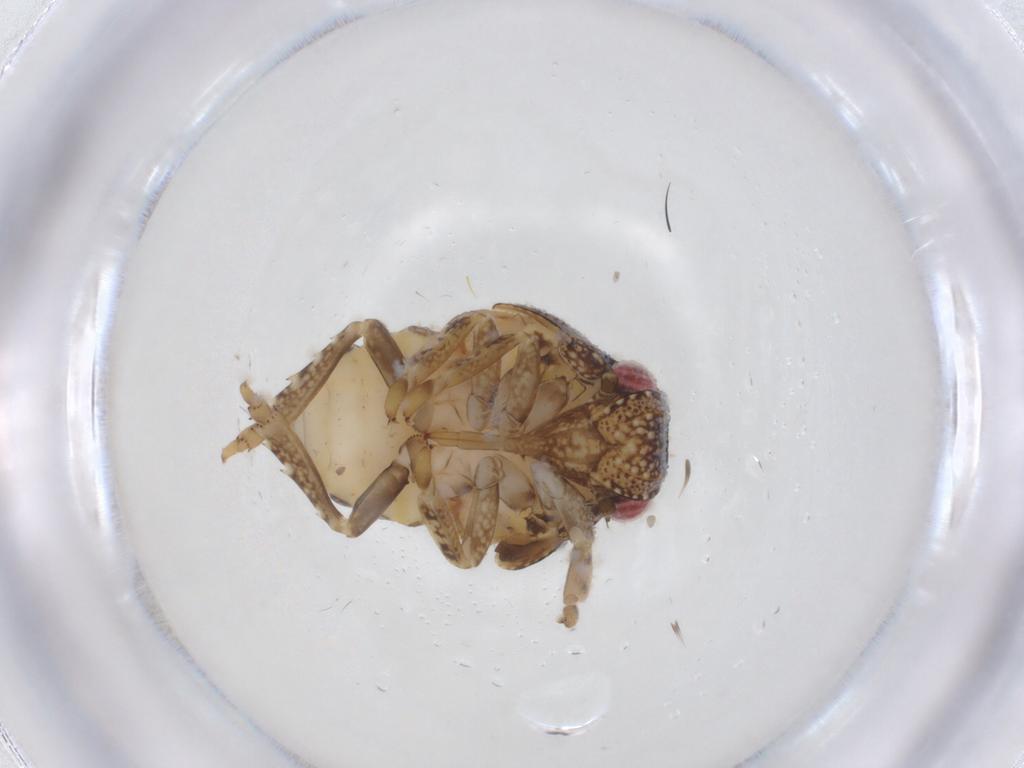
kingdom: Animalia
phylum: Arthropoda
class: Insecta
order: Hemiptera
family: Acanaloniidae
